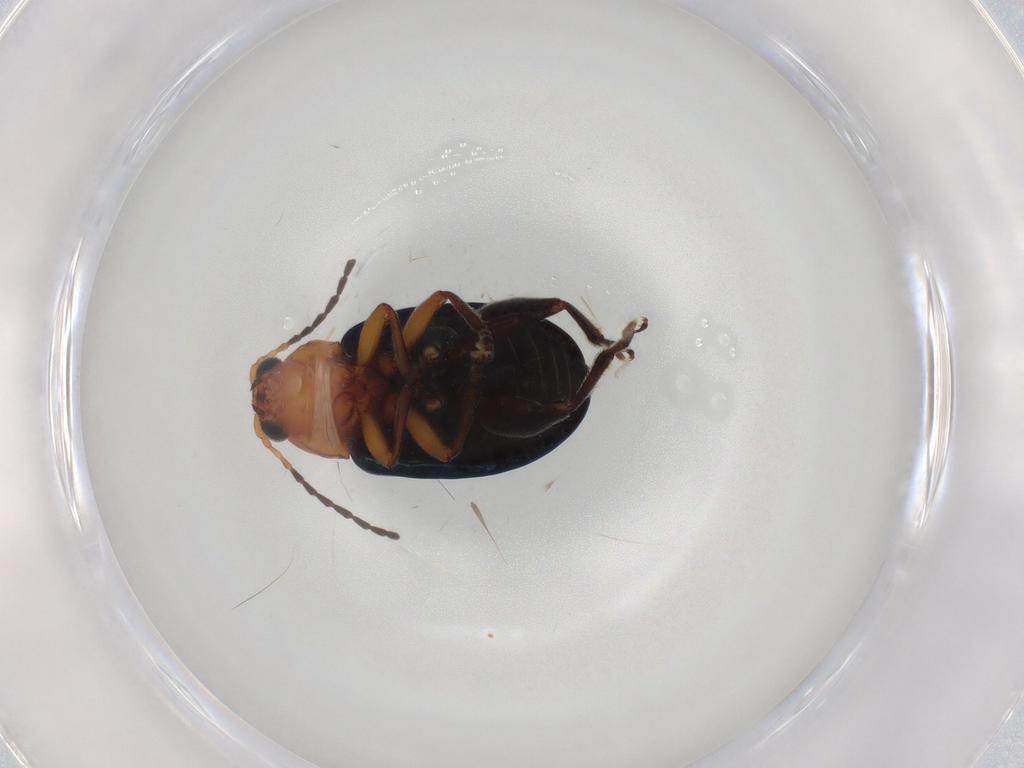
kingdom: Animalia
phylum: Arthropoda
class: Insecta
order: Coleoptera
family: Chrysomelidae
